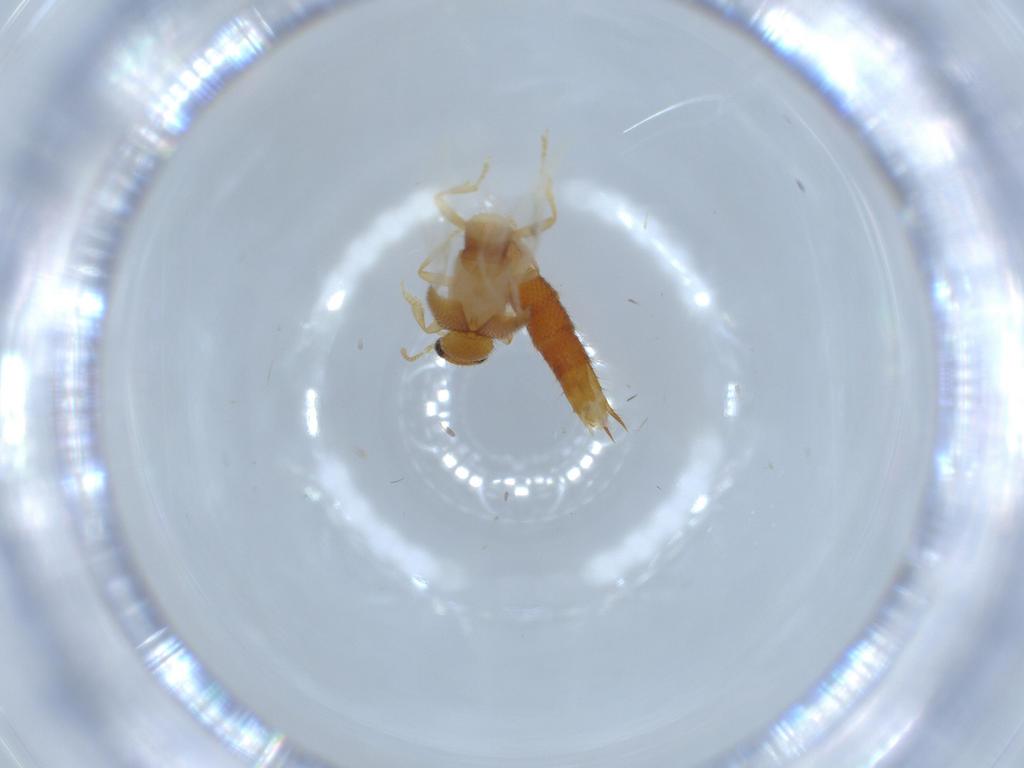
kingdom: Animalia
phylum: Arthropoda
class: Insecta
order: Coleoptera
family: Staphylinidae
